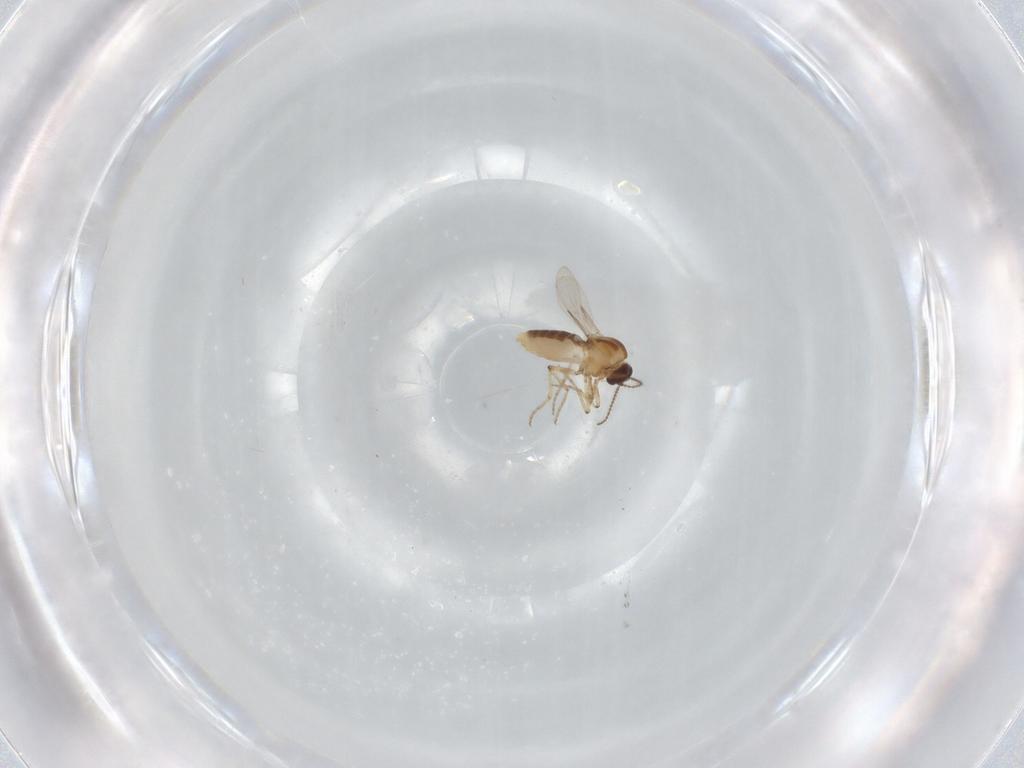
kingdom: Animalia
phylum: Arthropoda
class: Insecta
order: Diptera
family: Ceratopogonidae
